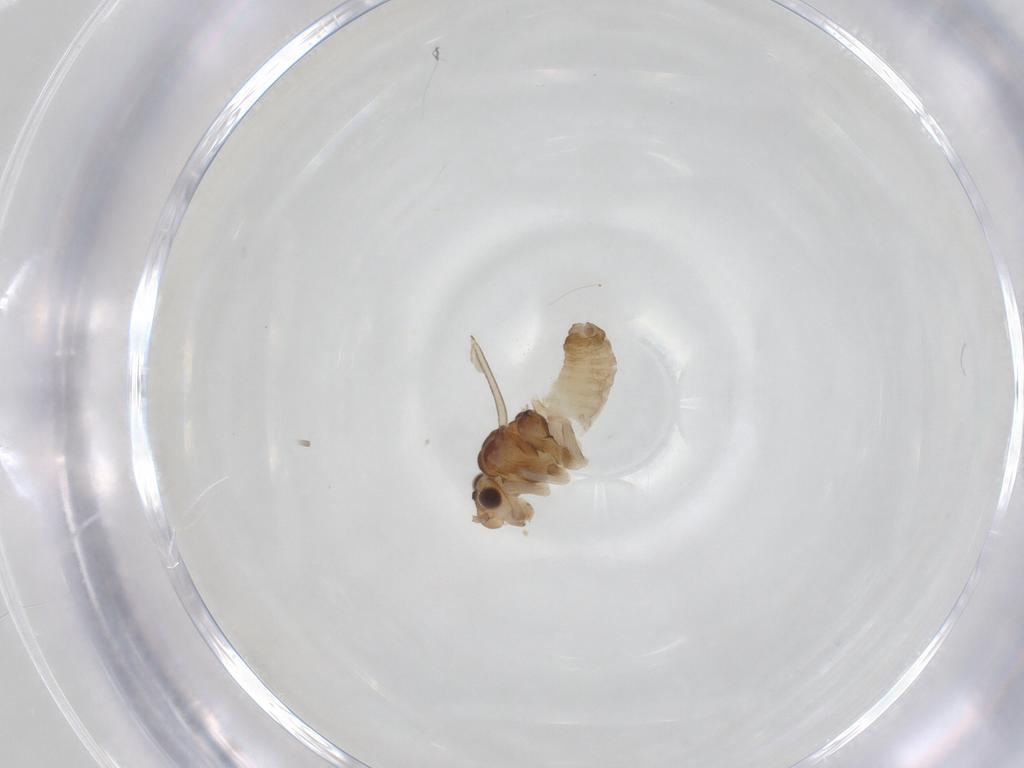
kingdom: Animalia
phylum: Arthropoda
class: Insecta
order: Psocodea
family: Philotarsidae
